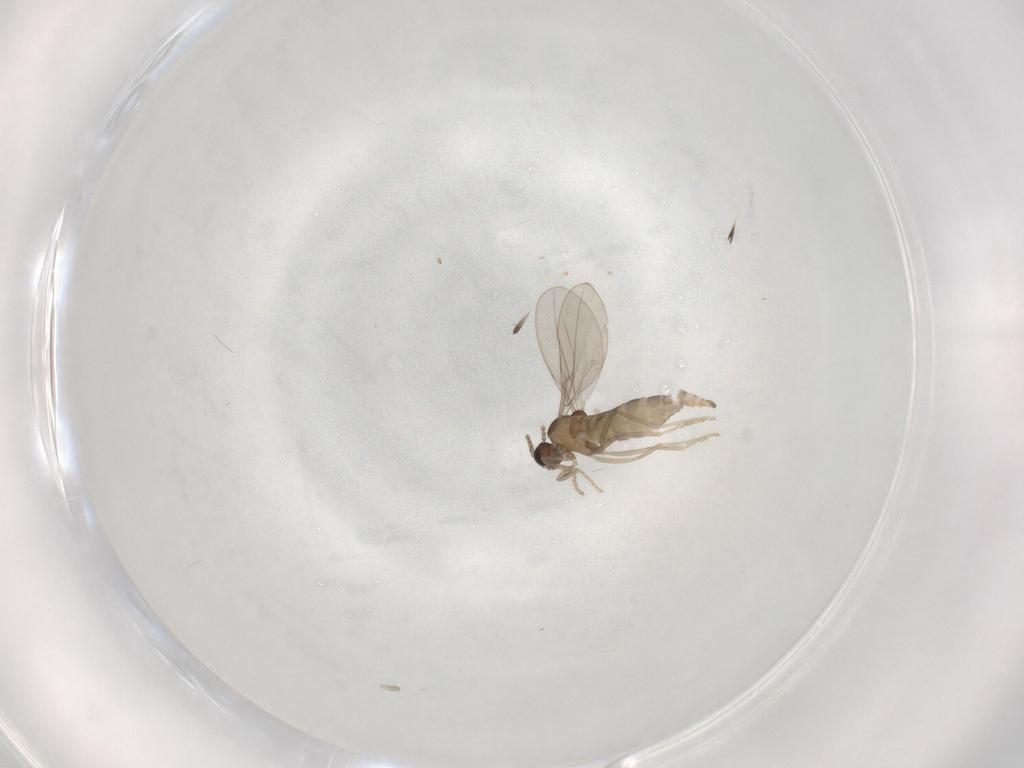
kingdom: Animalia
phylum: Arthropoda
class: Insecta
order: Diptera
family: Cecidomyiidae
